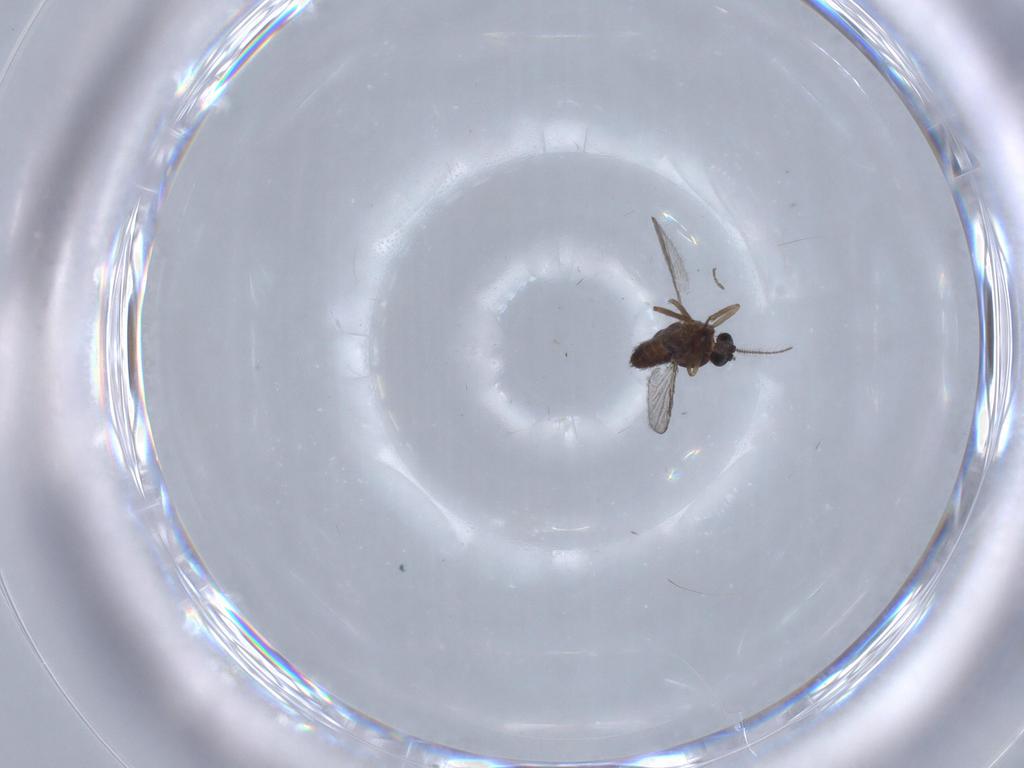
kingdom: Animalia
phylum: Arthropoda
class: Insecta
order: Diptera
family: Chironomidae
